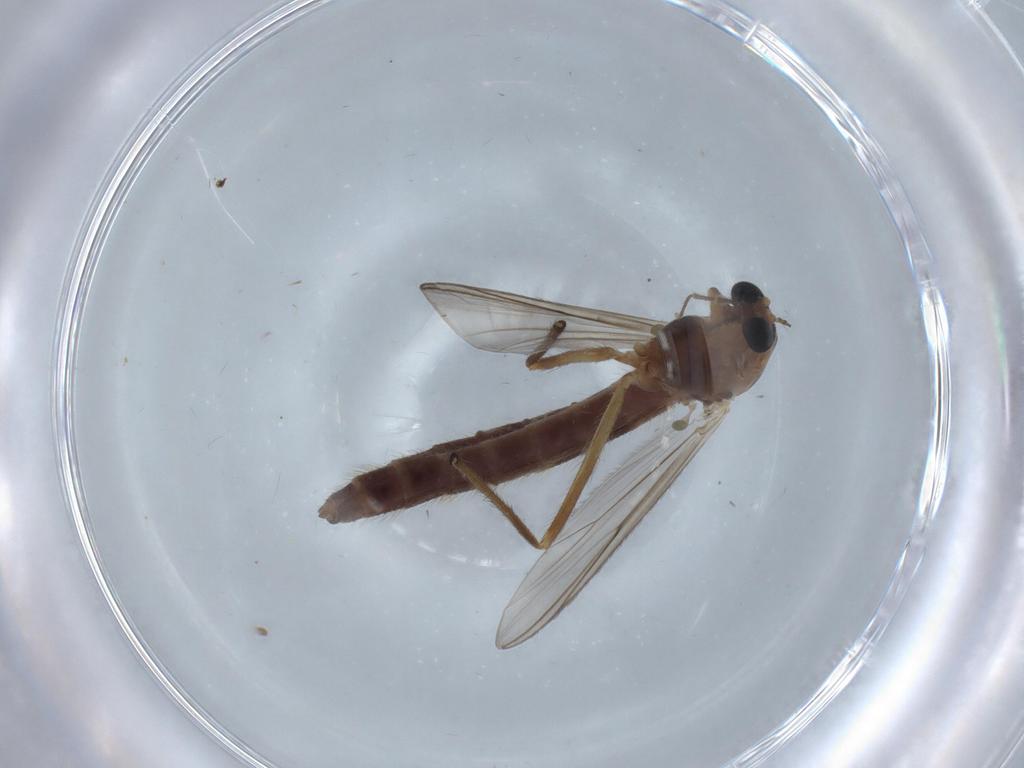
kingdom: Animalia
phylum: Arthropoda
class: Insecta
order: Diptera
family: Chironomidae
